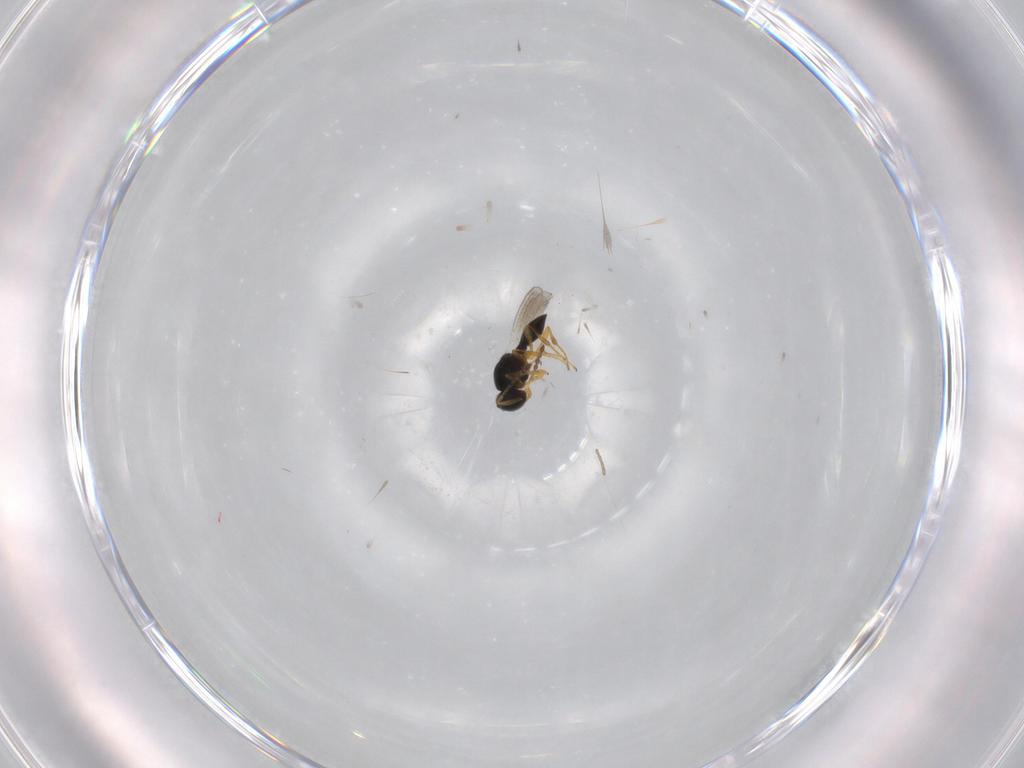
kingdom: Animalia
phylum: Arthropoda
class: Insecta
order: Hymenoptera
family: Platygastridae
